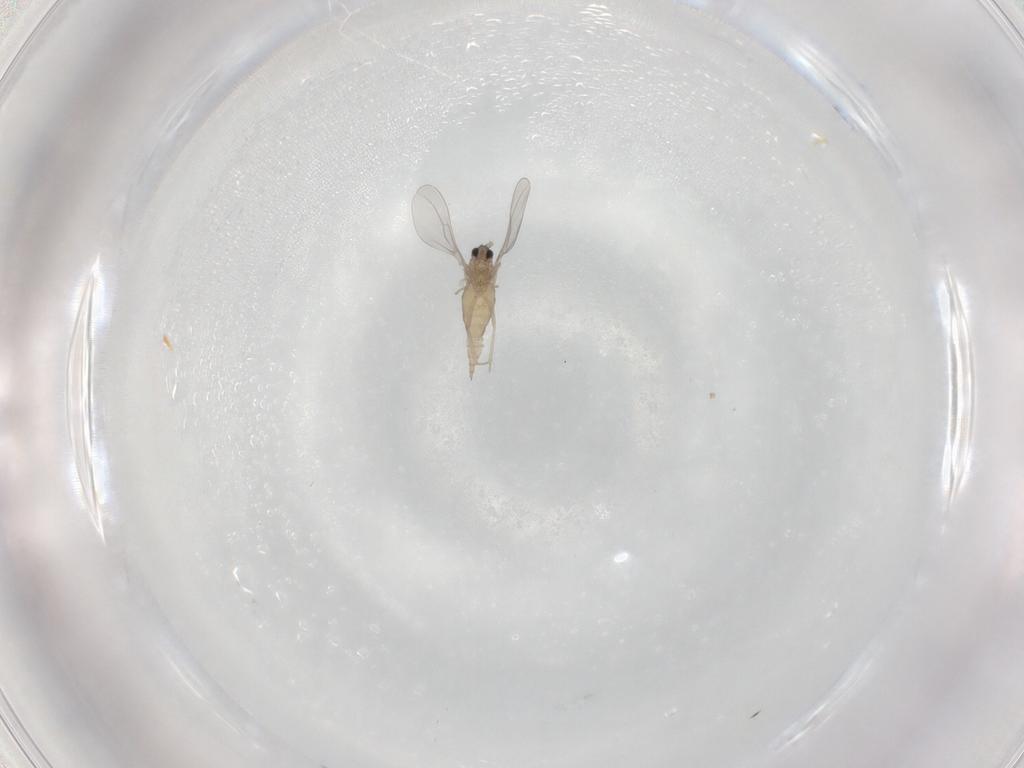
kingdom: Animalia
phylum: Arthropoda
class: Insecta
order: Diptera
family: Cecidomyiidae
